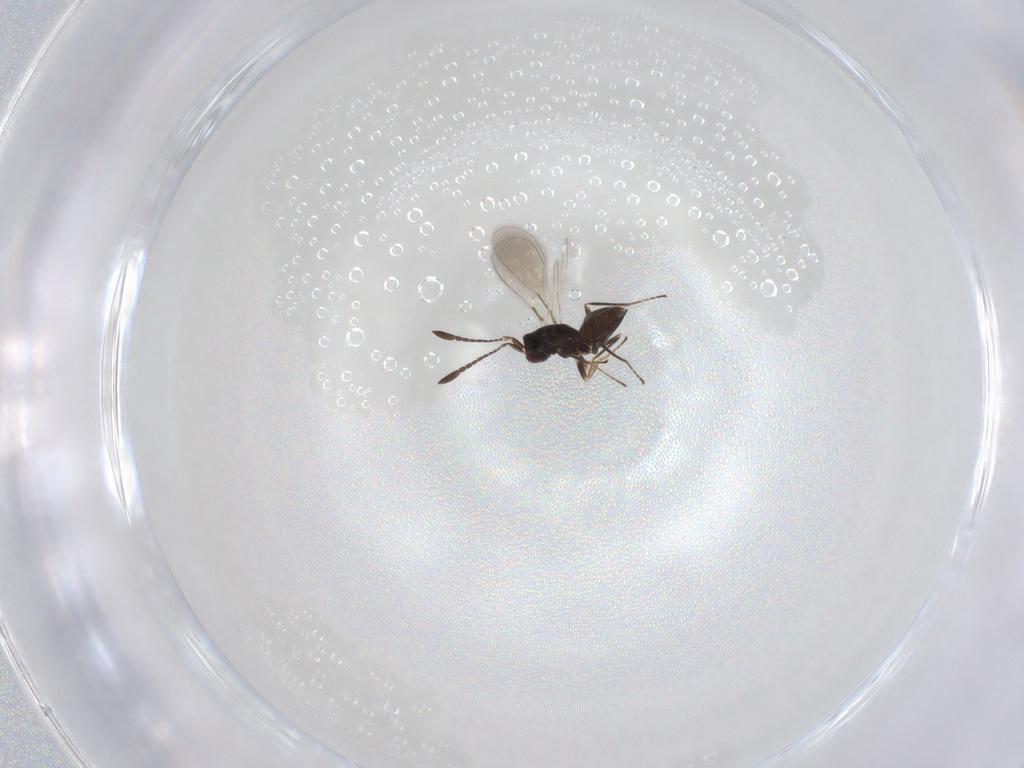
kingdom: Animalia
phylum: Arthropoda
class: Insecta
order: Hymenoptera
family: Mymaridae
